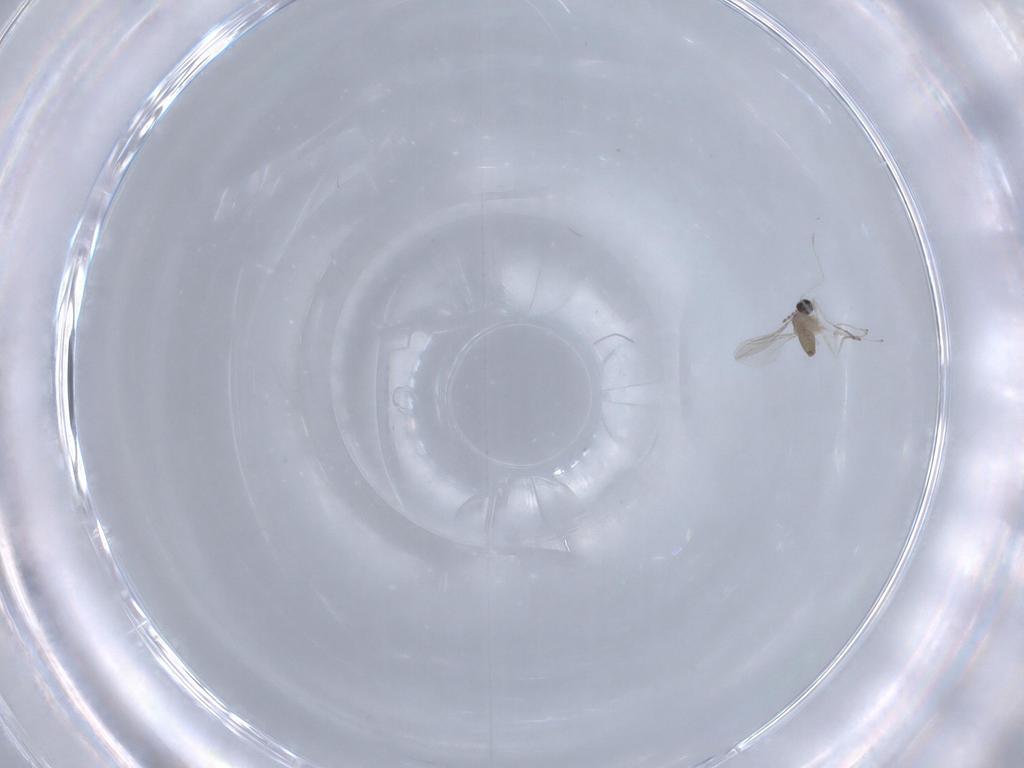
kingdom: Animalia
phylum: Arthropoda
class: Insecta
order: Diptera
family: Cecidomyiidae
